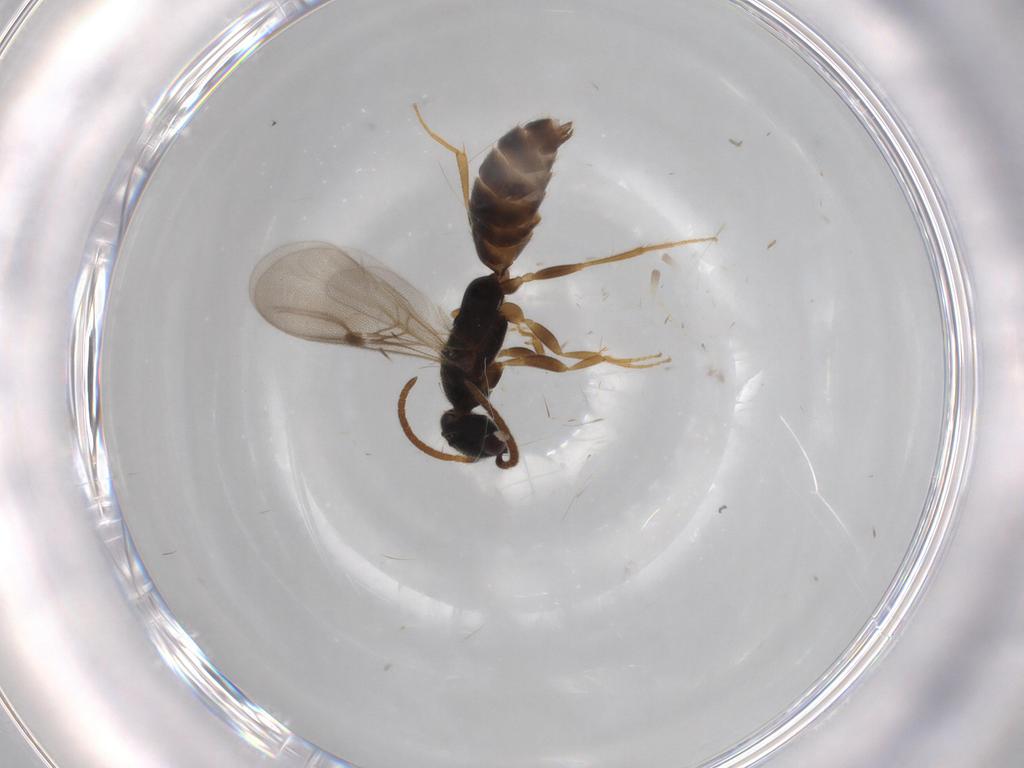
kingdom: Animalia
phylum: Arthropoda
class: Insecta
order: Hymenoptera
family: Bethylidae
